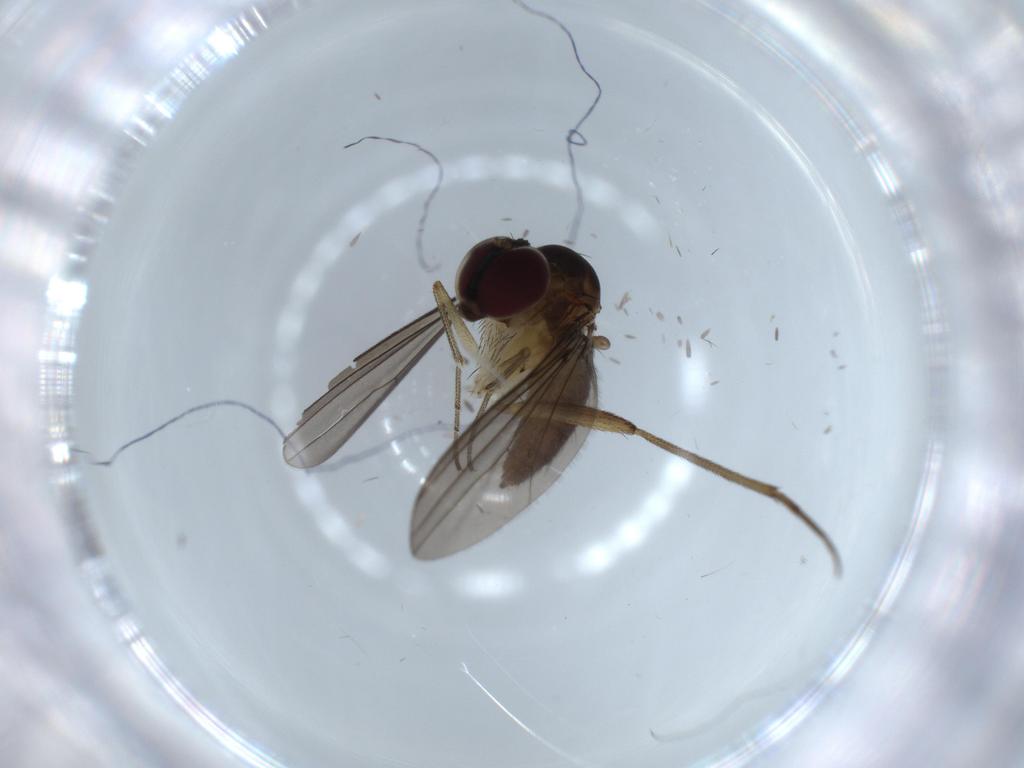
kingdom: Animalia
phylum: Arthropoda
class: Insecta
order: Diptera
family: Dolichopodidae
